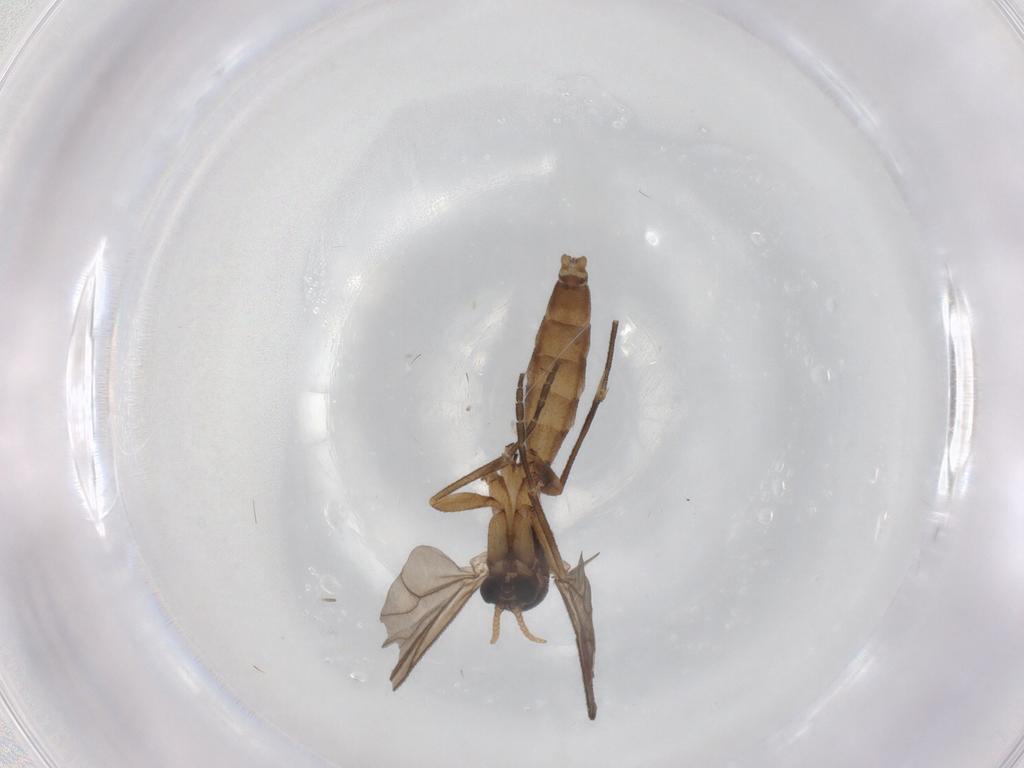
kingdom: Animalia
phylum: Arthropoda
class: Insecta
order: Diptera
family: Mycetophilidae
